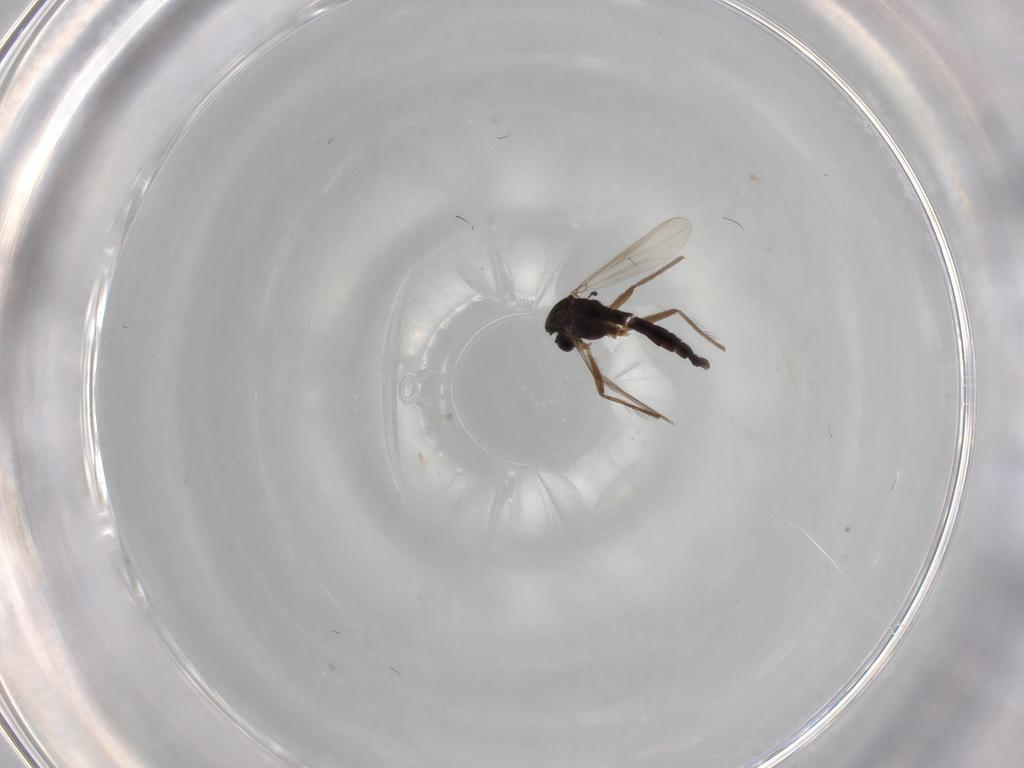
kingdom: Animalia
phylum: Arthropoda
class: Insecta
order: Diptera
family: Chironomidae
